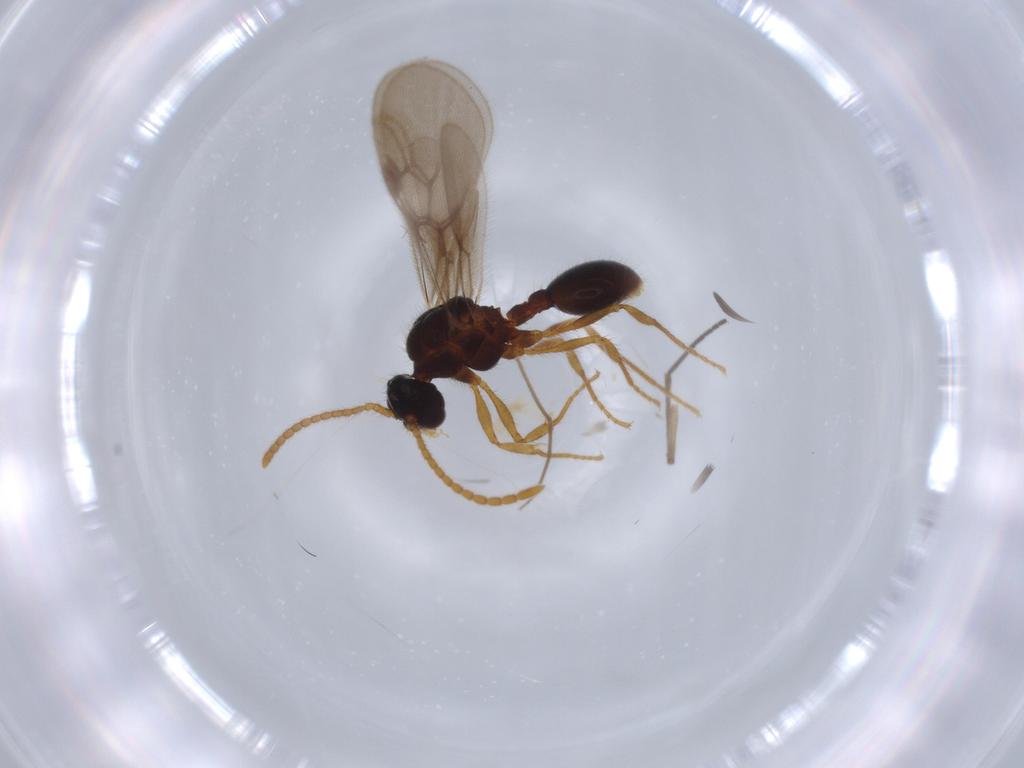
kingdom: Animalia
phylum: Arthropoda
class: Insecta
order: Hymenoptera
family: Formicidae
